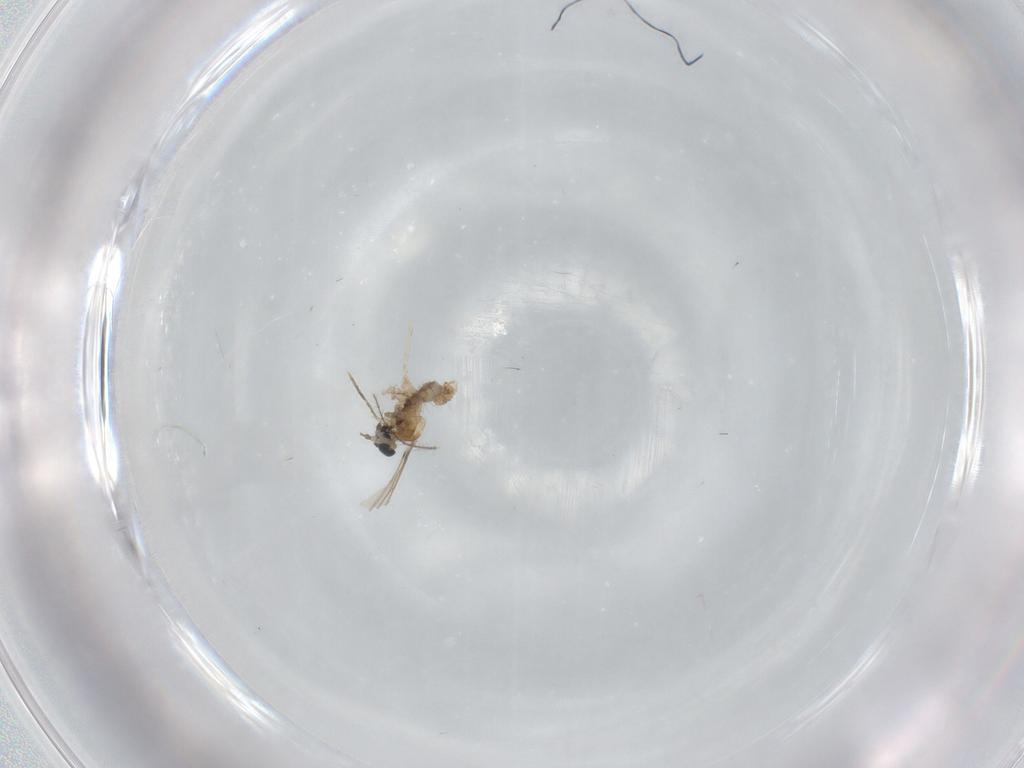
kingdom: Animalia
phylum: Arthropoda
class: Insecta
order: Diptera
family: Cecidomyiidae
